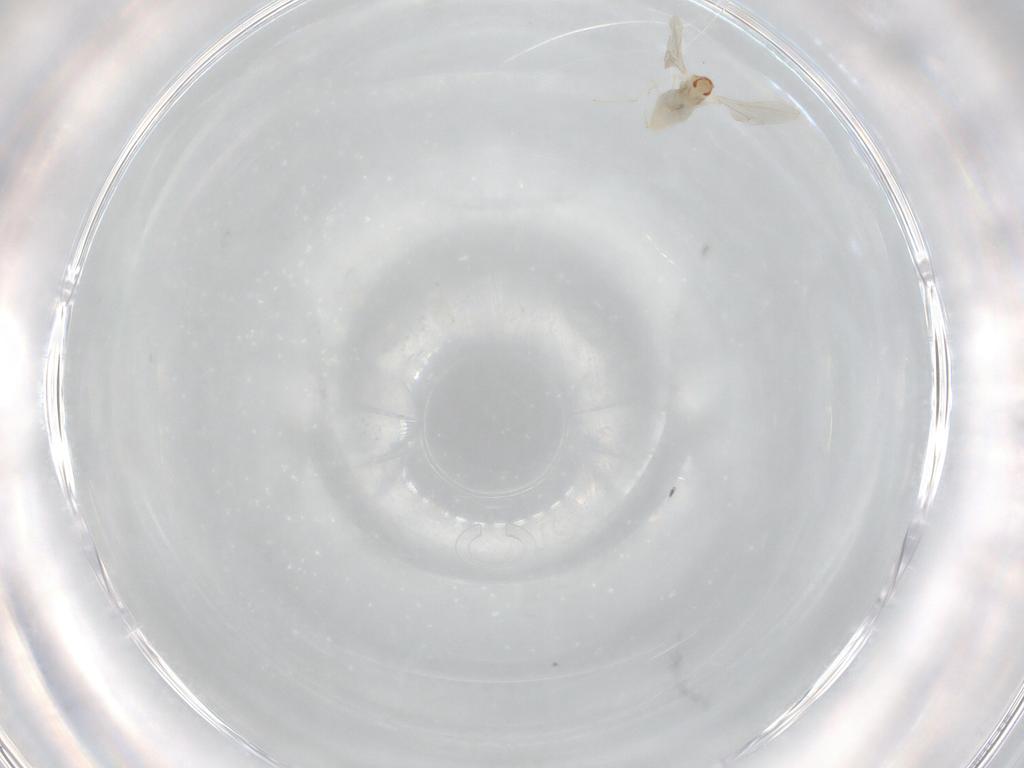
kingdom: Animalia
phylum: Arthropoda
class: Insecta
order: Diptera
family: Cecidomyiidae
